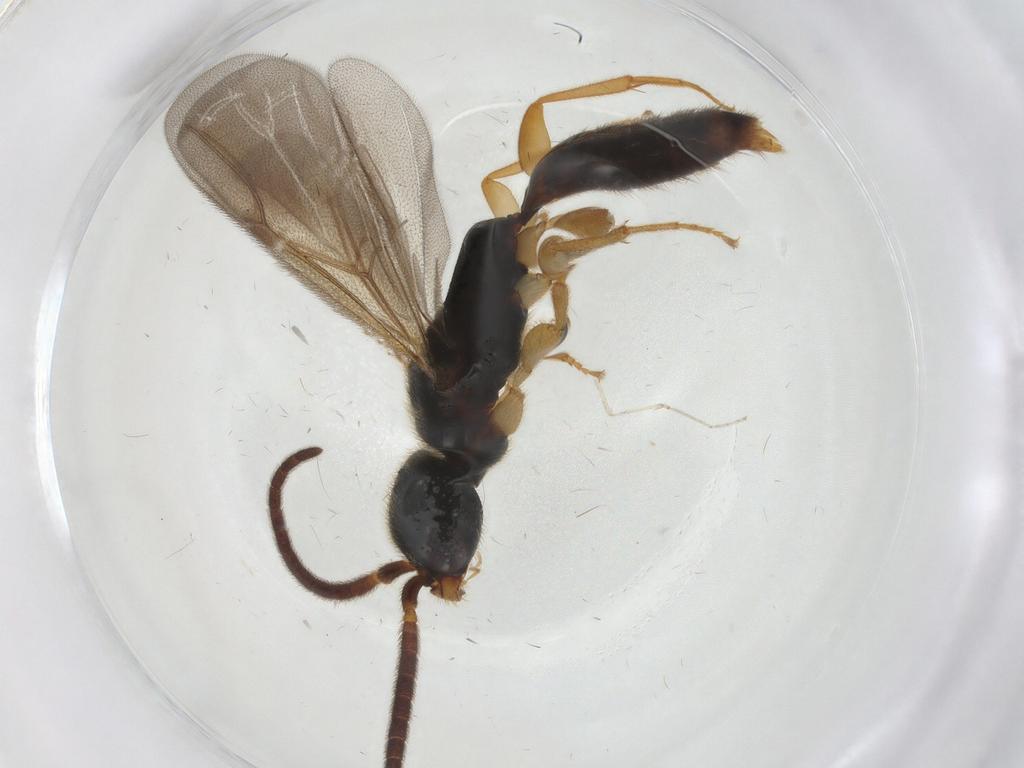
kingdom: Animalia
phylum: Arthropoda
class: Insecta
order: Hymenoptera
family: Bethylidae
